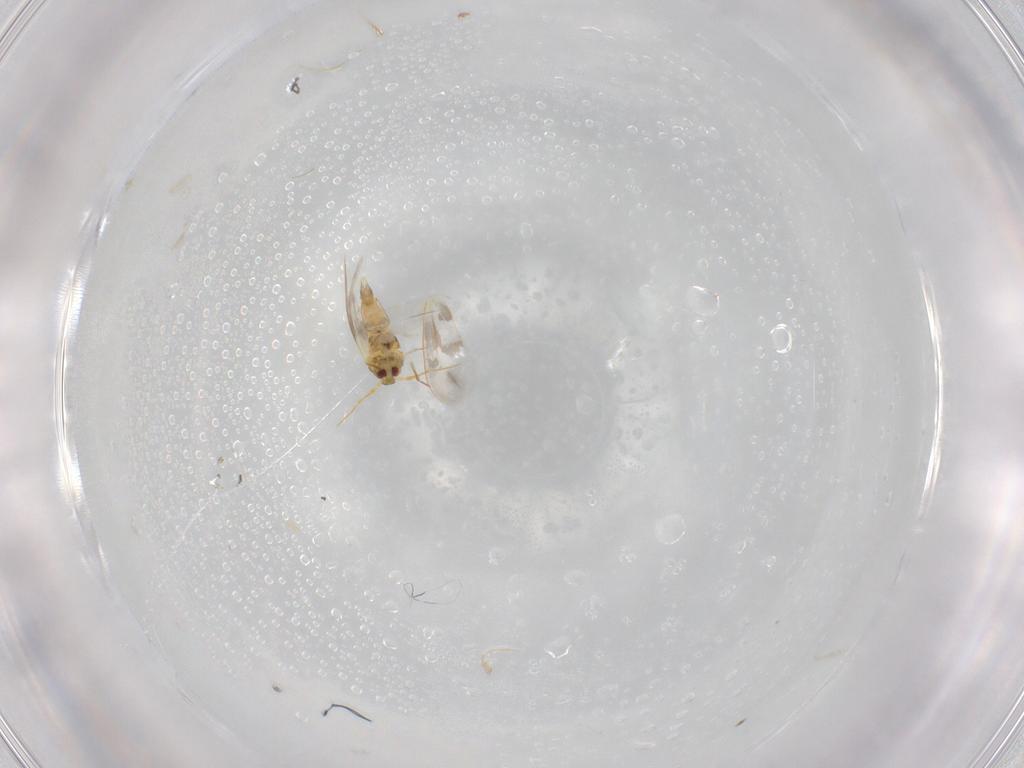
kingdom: Animalia
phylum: Arthropoda
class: Insecta
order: Hemiptera
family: Aleyrodidae
